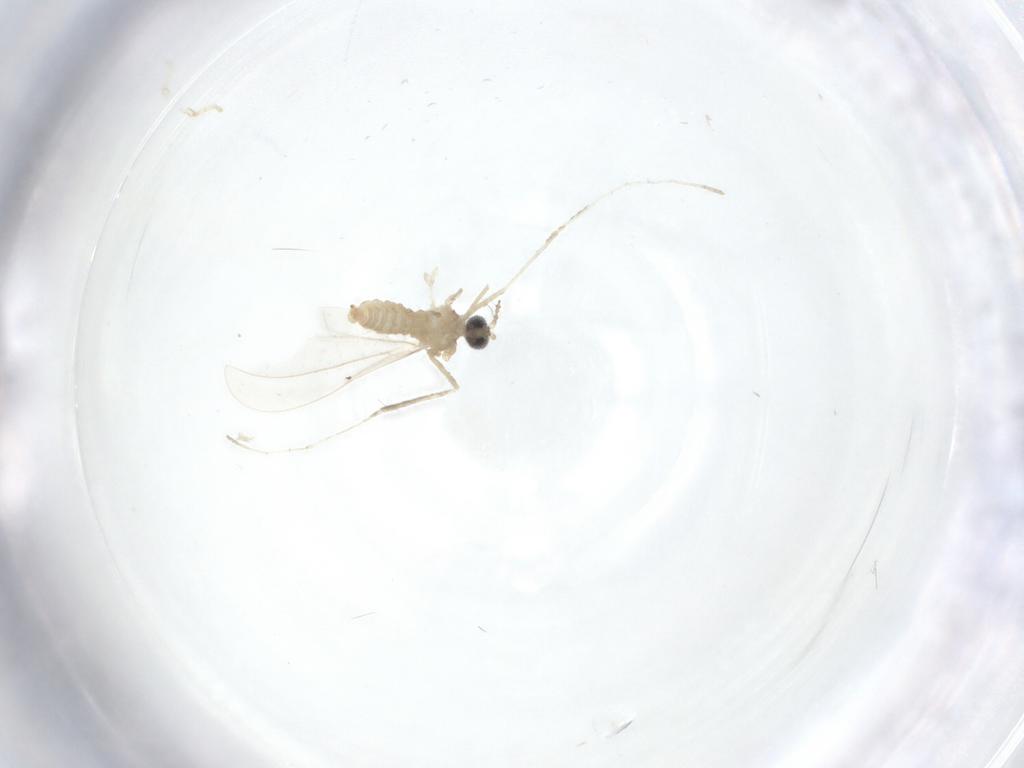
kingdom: Animalia
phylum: Arthropoda
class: Insecta
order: Diptera
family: Cecidomyiidae
